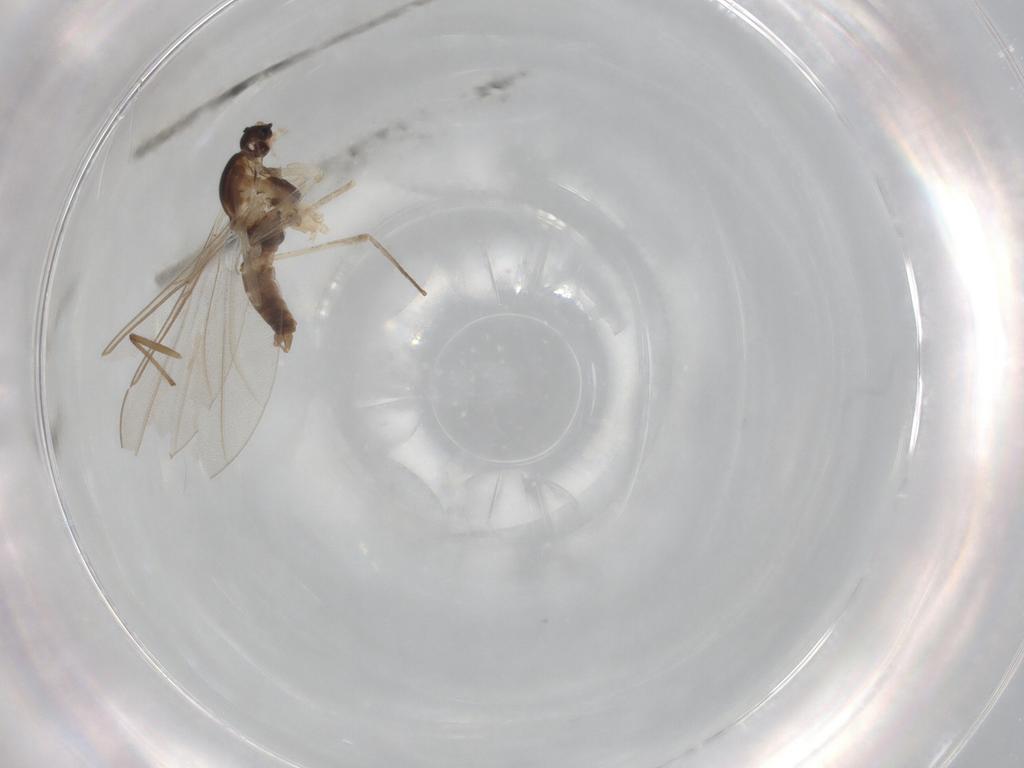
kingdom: Animalia
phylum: Arthropoda
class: Insecta
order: Diptera
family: Cecidomyiidae
